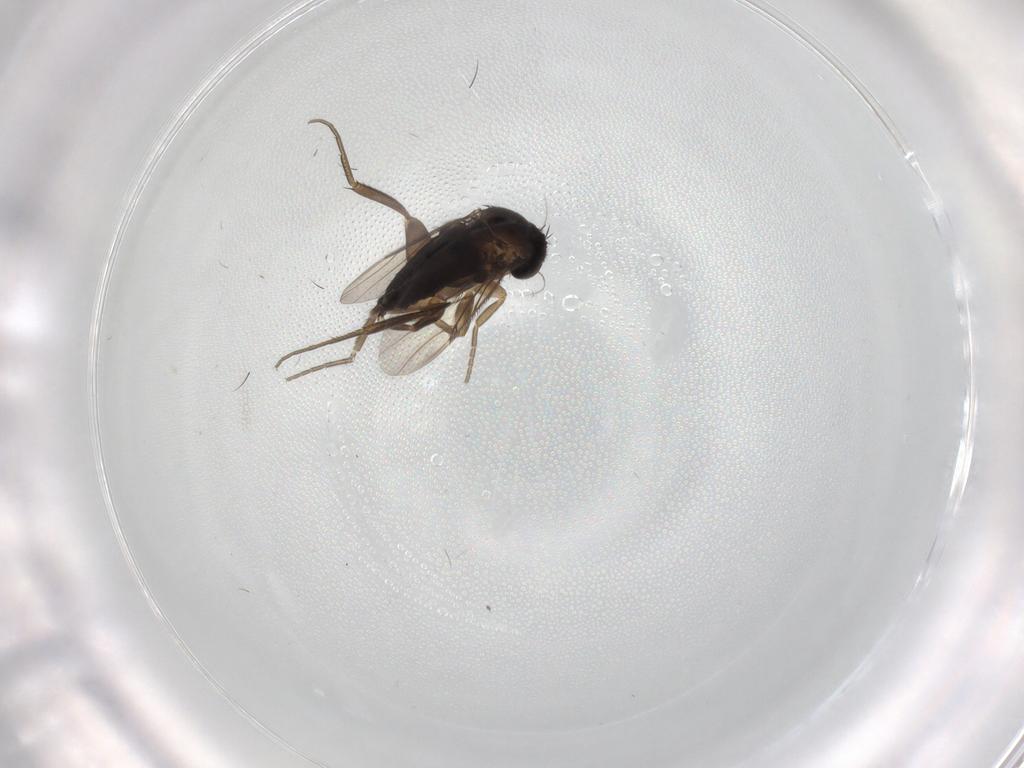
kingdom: Animalia
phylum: Arthropoda
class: Insecta
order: Diptera
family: Phoridae
